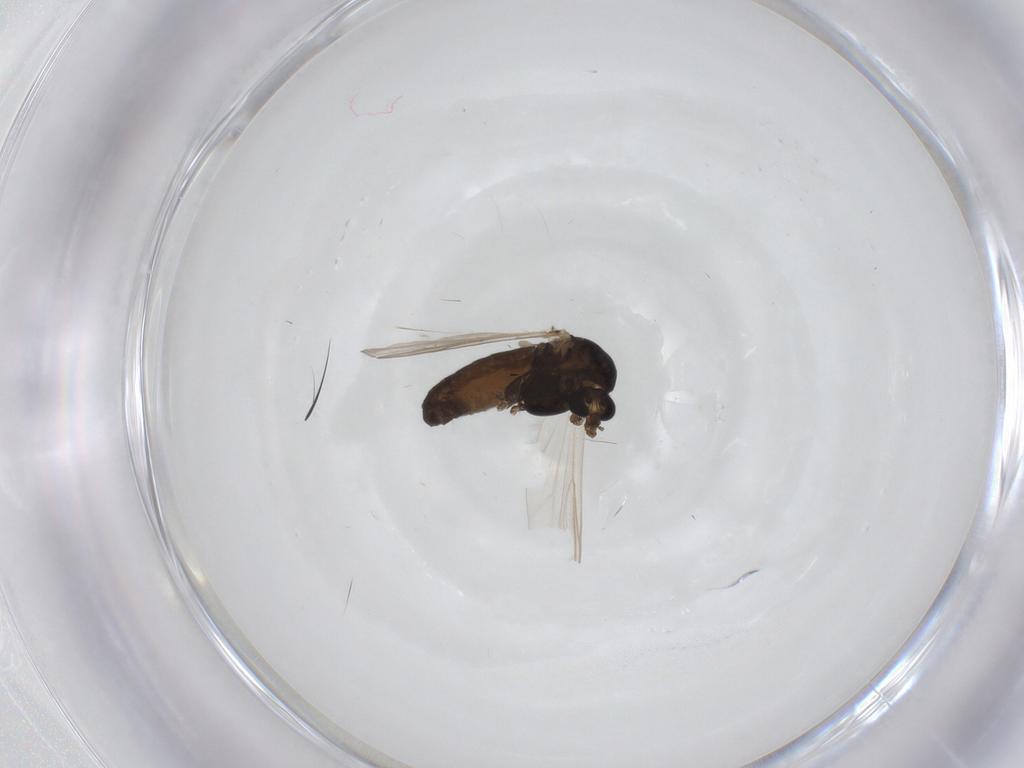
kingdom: Animalia
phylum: Arthropoda
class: Insecta
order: Diptera
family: Chironomidae
